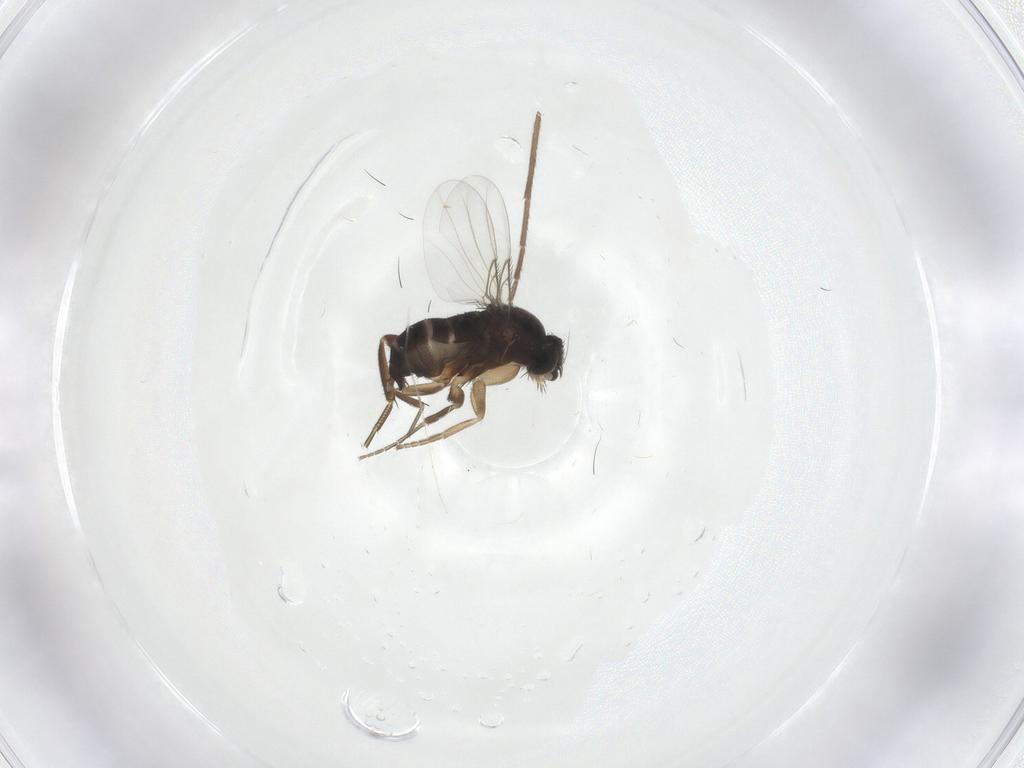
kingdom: Animalia
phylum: Arthropoda
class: Insecta
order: Diptera
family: Phoridae
